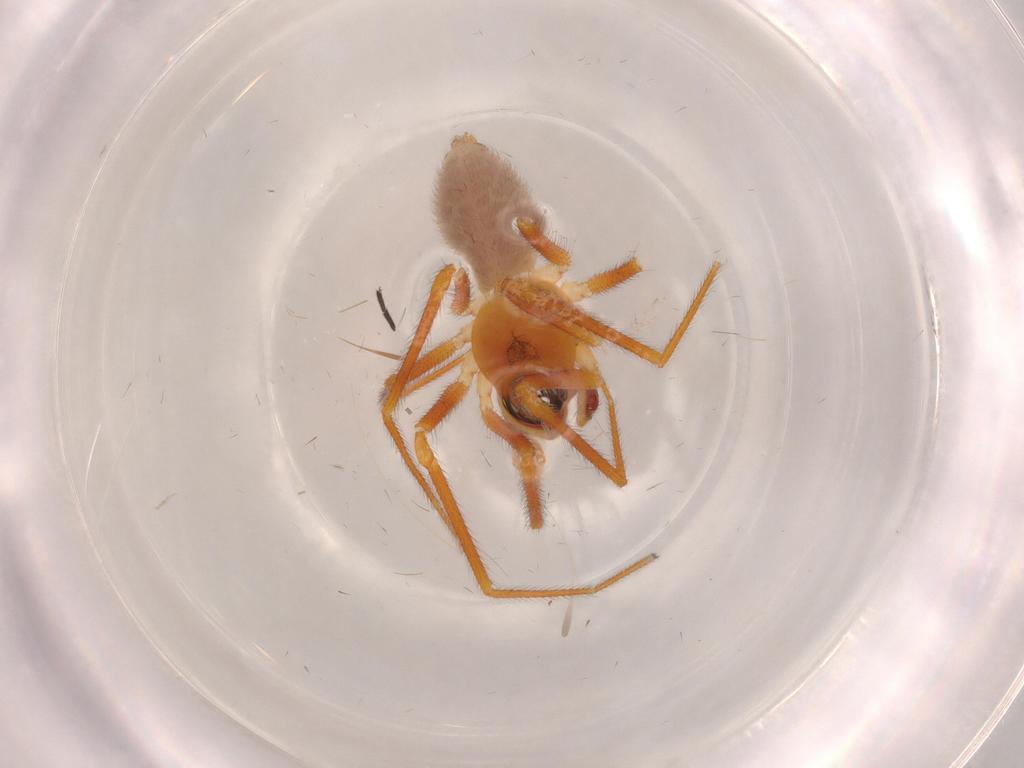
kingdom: Animalia
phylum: Arthropoda
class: Arachnida
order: Araneae
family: Linyphiidae
